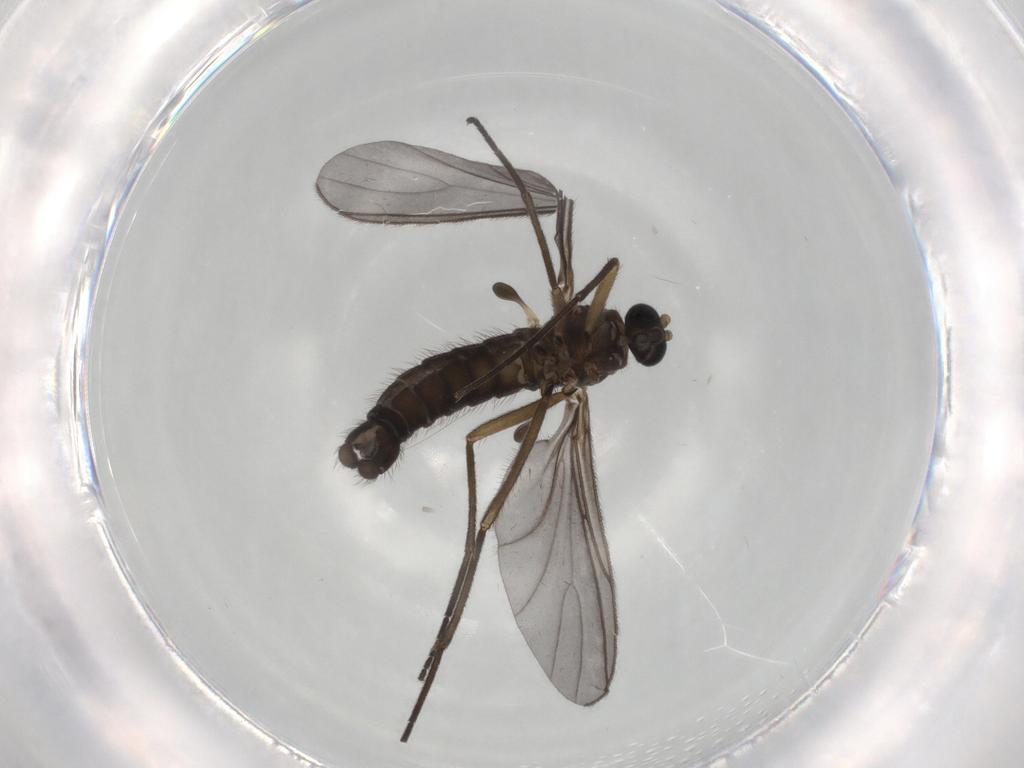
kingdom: Animalia
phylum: Arthropoda
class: Insecta
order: Diptera
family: Sciaridae
